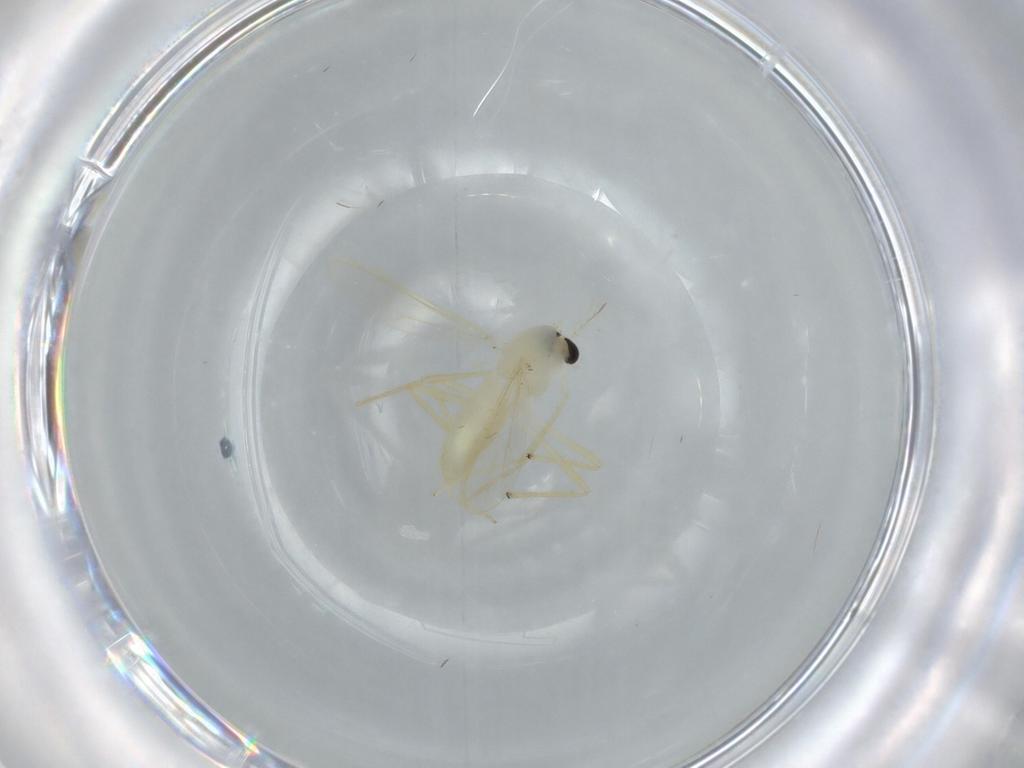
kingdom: Animalia
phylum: Arthropoda
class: Insecta
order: Diptera
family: Chironomidae
